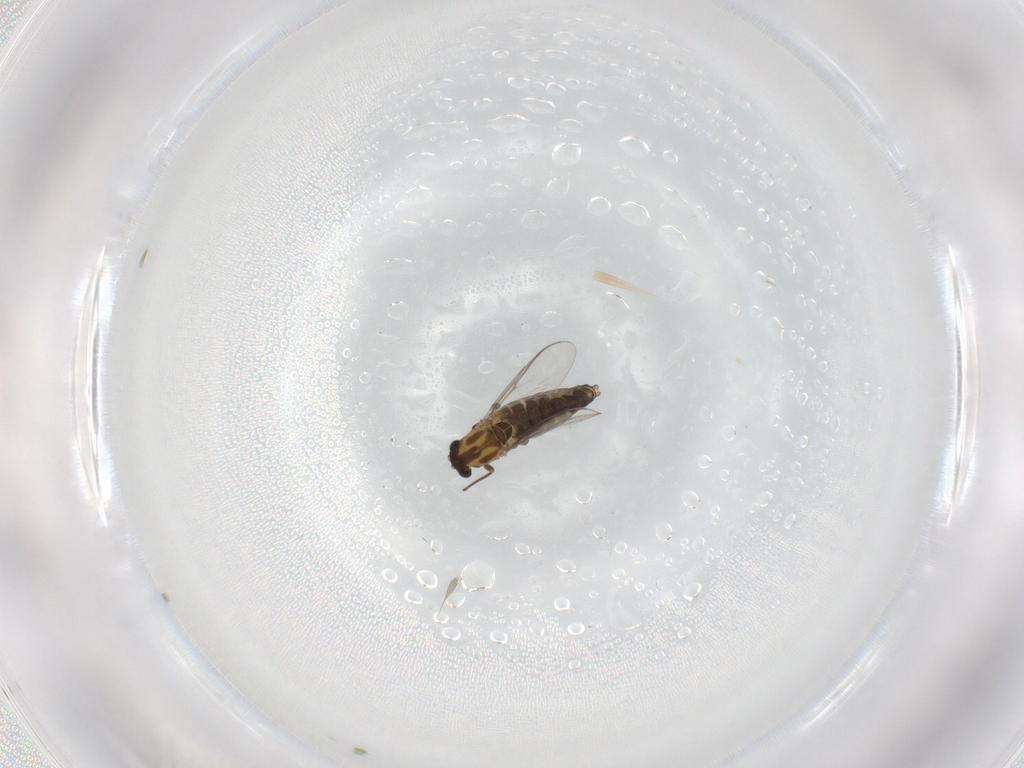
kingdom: Animalia
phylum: Arthropoda
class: Insecta
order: Diptera
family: Chironomidae
